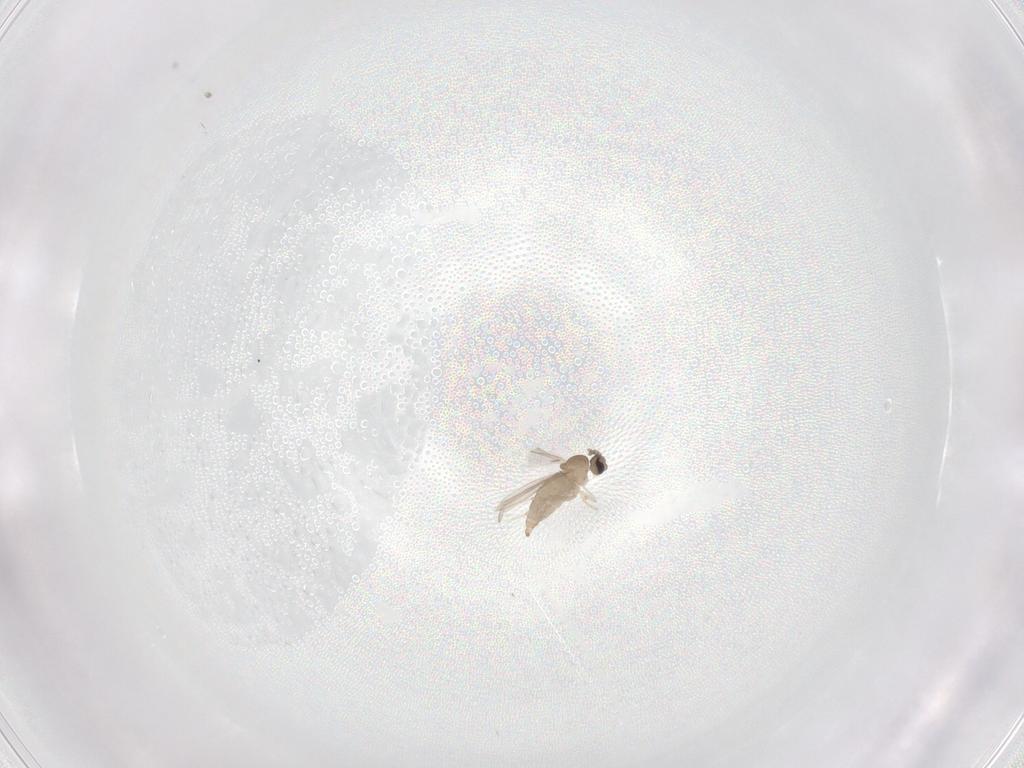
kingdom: Animalia
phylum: Arthropoda
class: Insecta
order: Diptera
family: Cecidomyiidae
